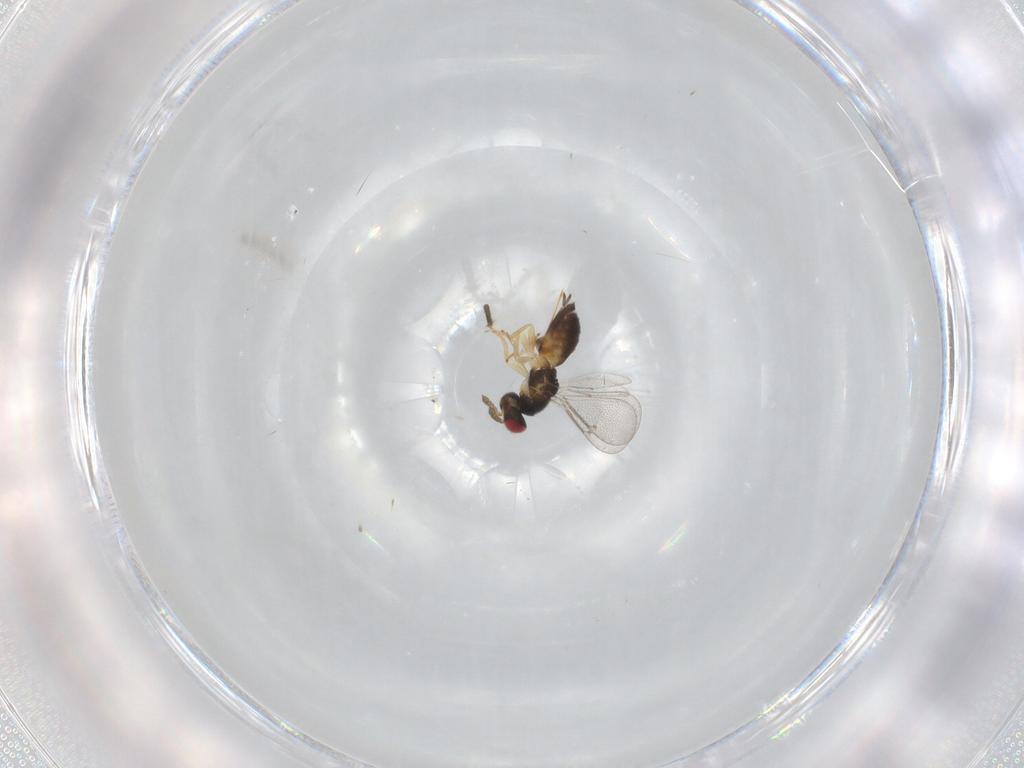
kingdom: Animalia
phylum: Arthropoda
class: Insecta
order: Hymenoptera
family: Eulophidae
